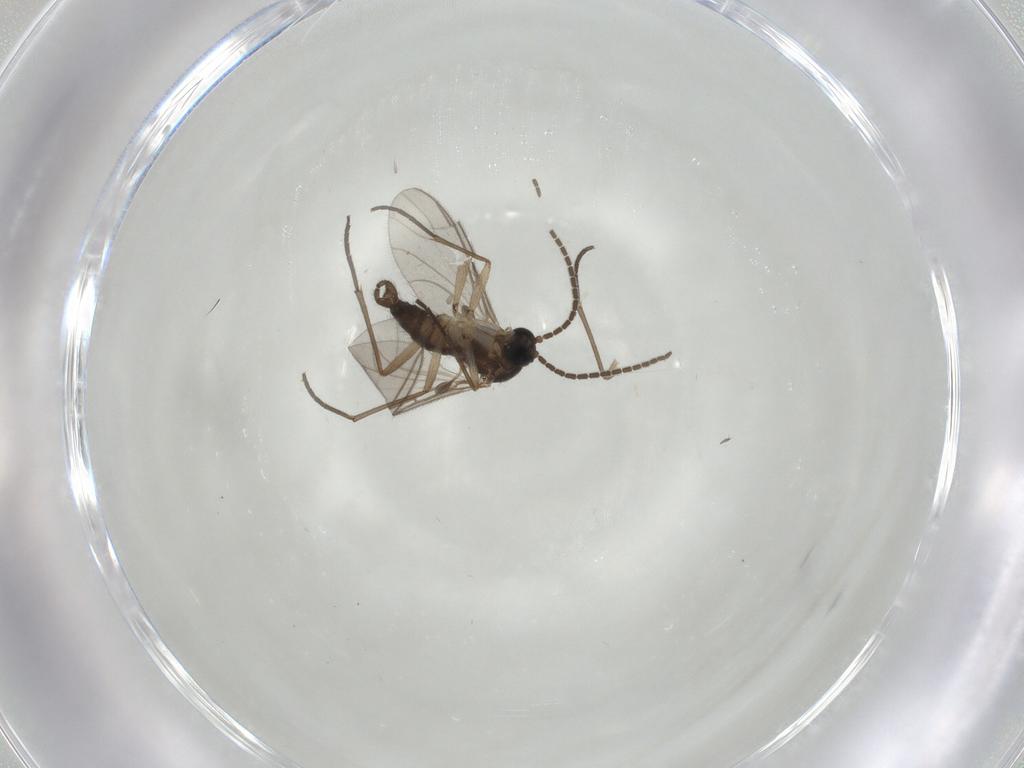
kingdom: Animalia
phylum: Arthropoda
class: Insecta
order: Diptera
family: Sciaridae
